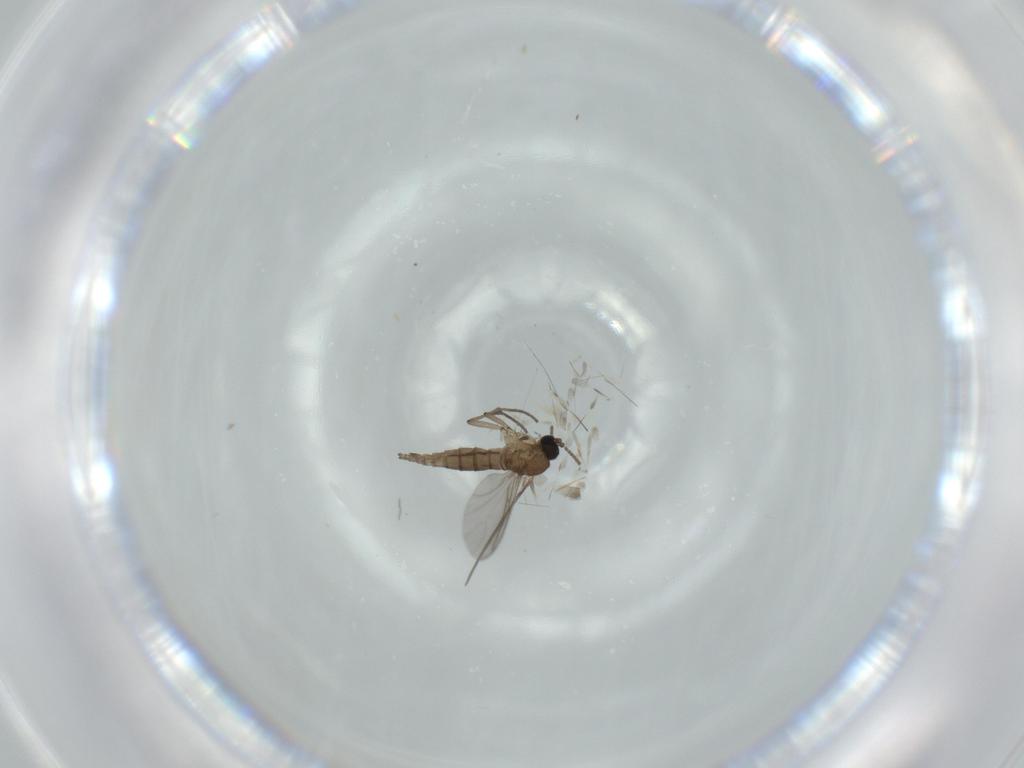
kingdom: Animalia
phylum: Arthropoda
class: Insecta
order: Diptera
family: Sciaridae
